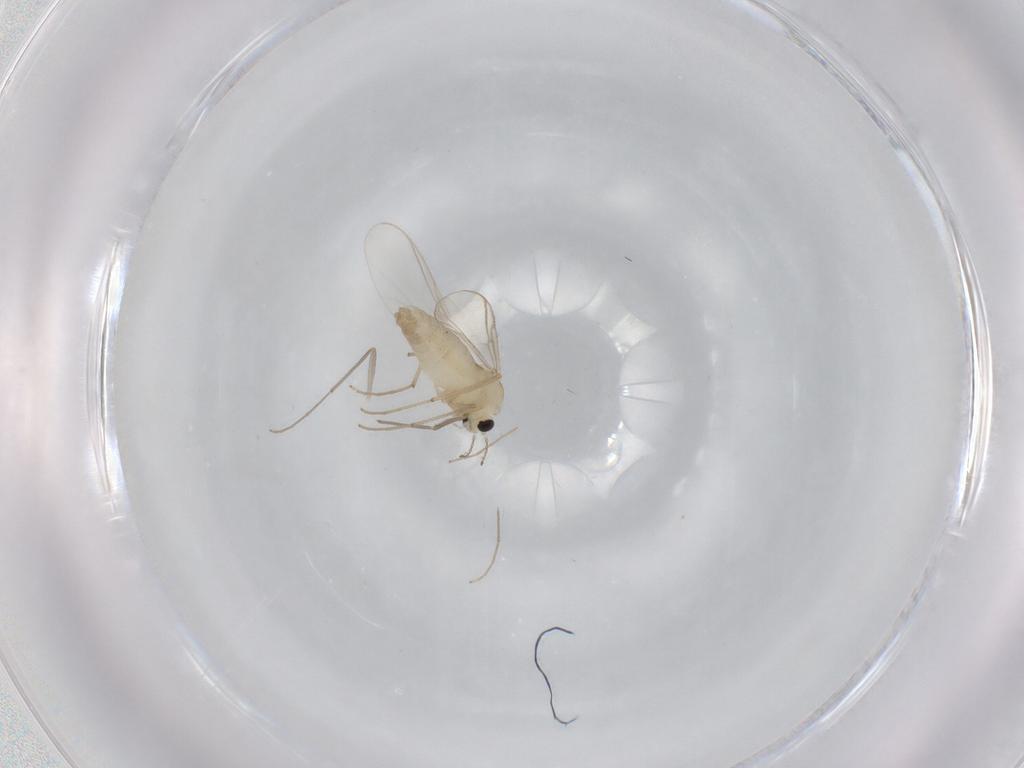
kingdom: Animalia
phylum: Arthropoda
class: Insecta
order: Diptera
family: Chironomidae
